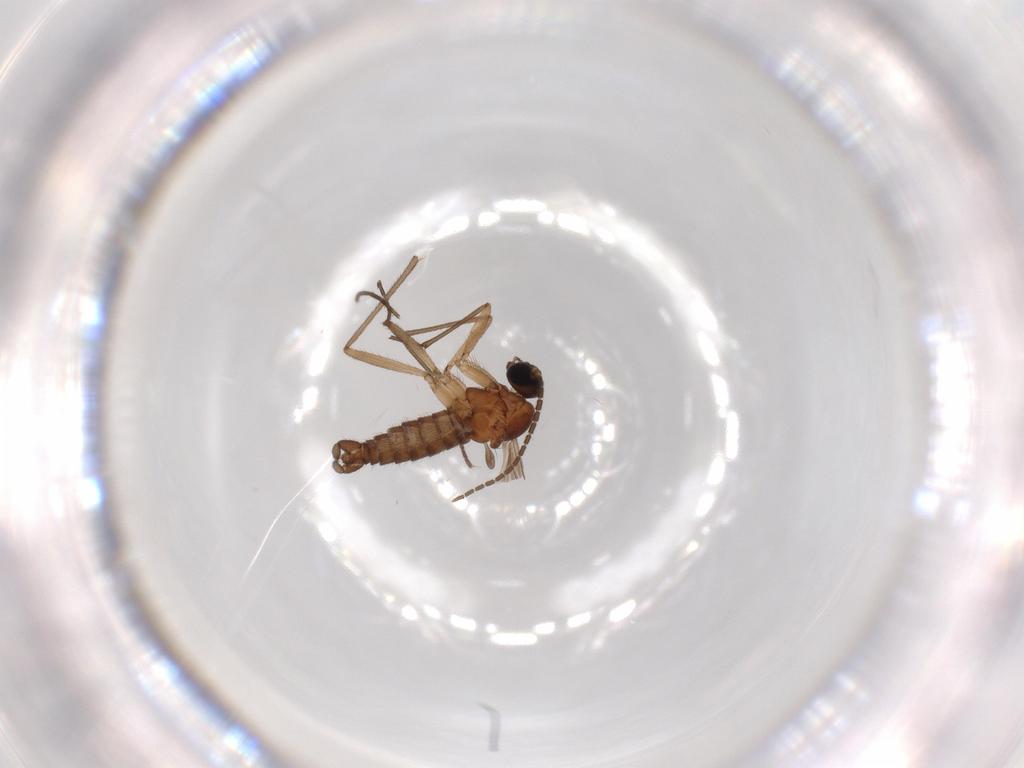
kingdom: Animalia
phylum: Arthropoda
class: Insecta
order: Diptera
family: Sciaridae
